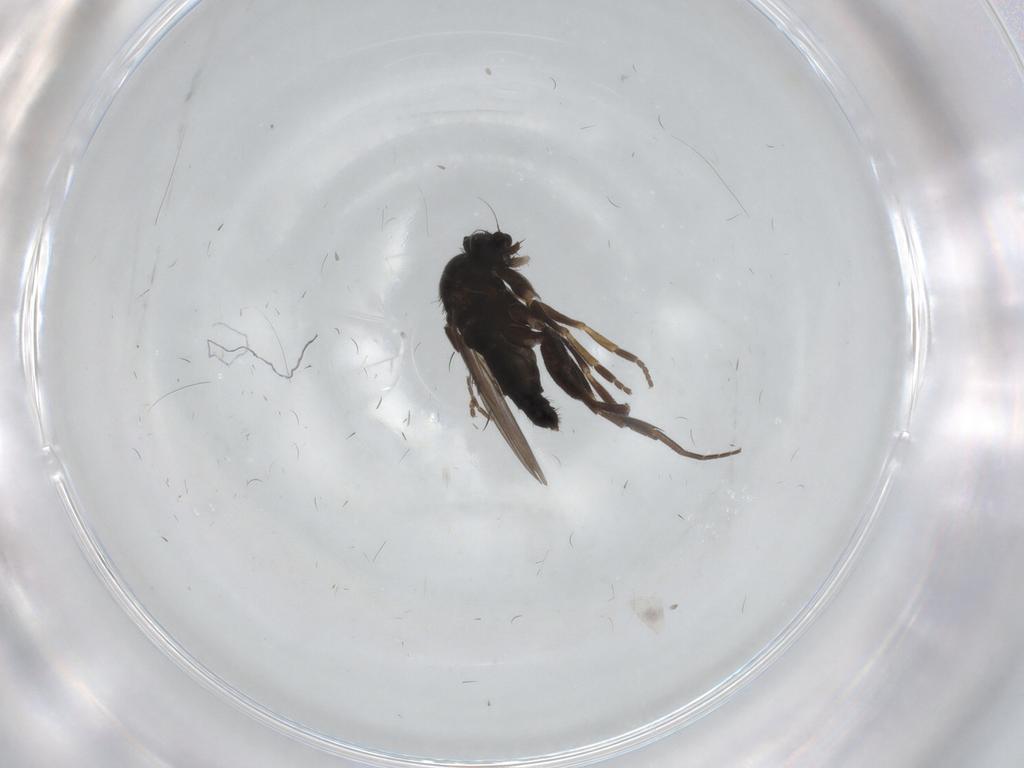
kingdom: Animalia
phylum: Arthropoda
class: Insecta
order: Diptera
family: Phoridae
